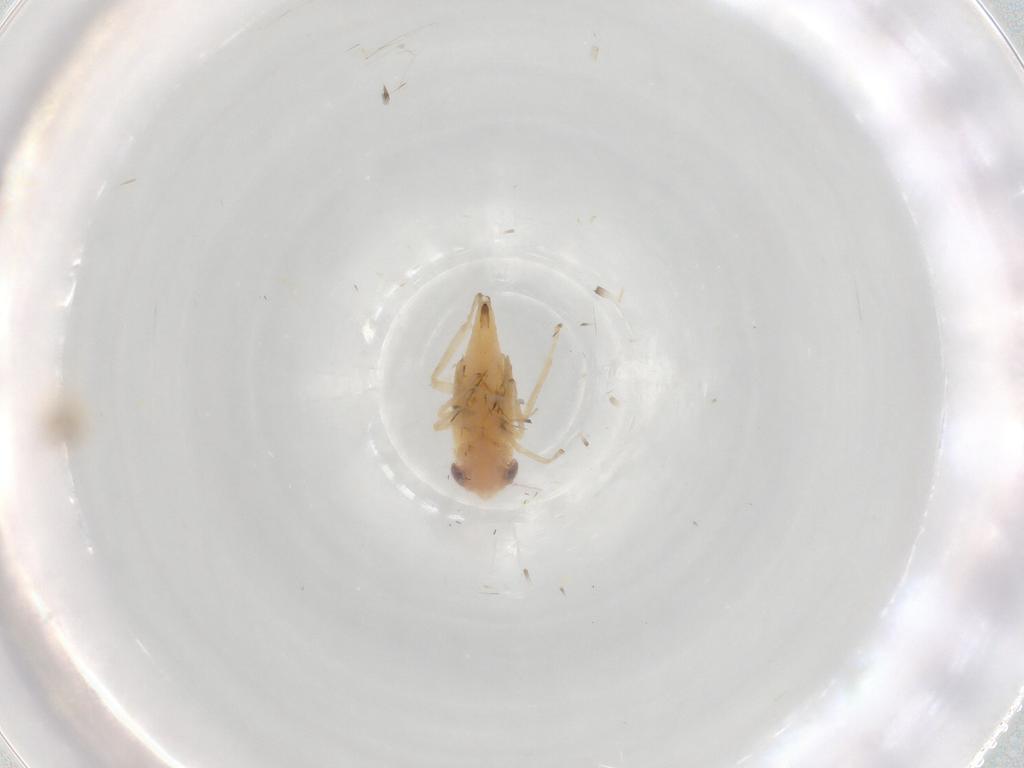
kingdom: Animalia
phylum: Arthropoda
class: Insecta
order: Hemiptera
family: Cicadellidae
